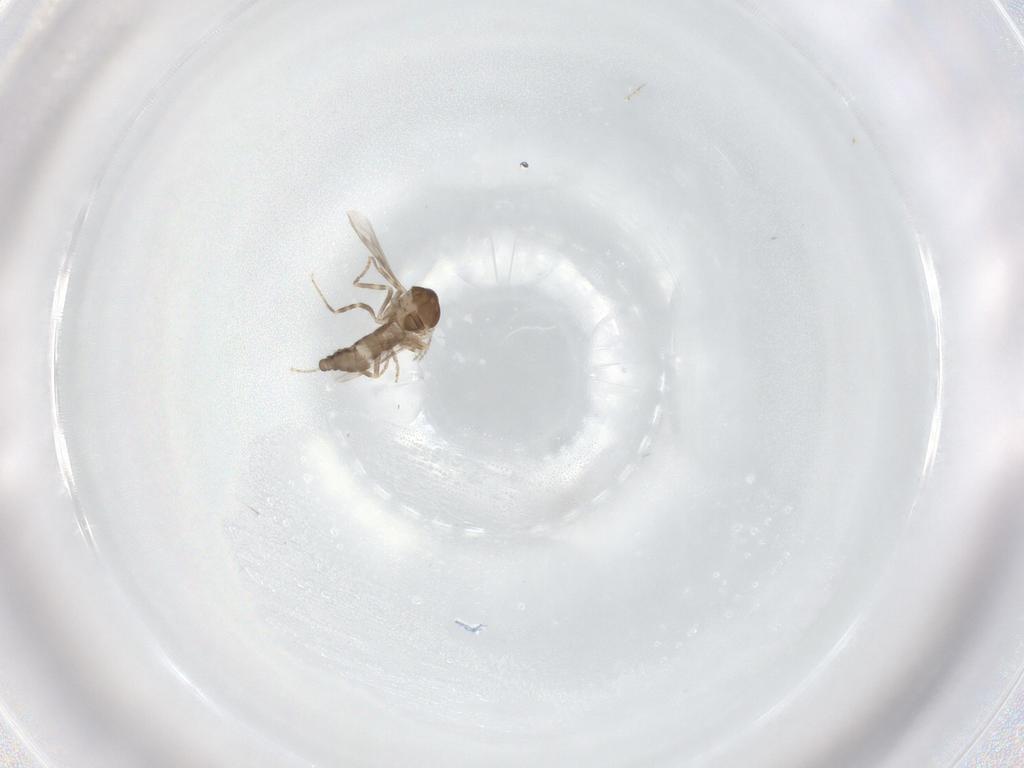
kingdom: Animalia
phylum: Arthropoda
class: Insecta
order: Diptera
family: Ceratopogonidae
